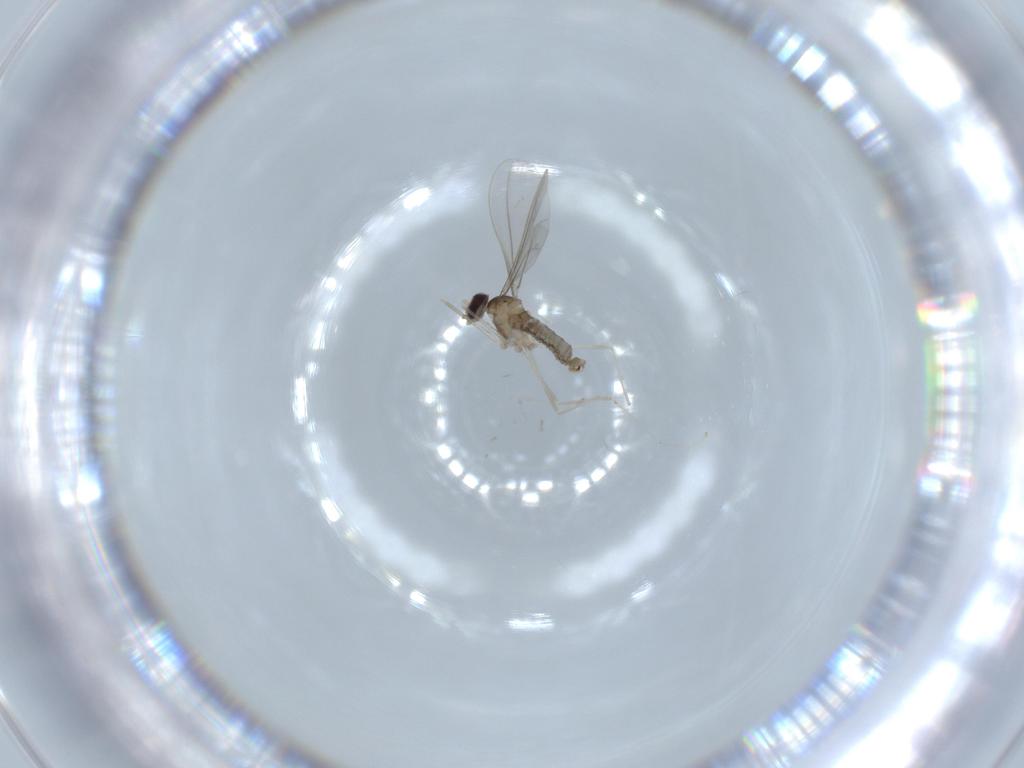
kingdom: Animalia
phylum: Arthropoda
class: Insecta
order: Diptera
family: Cecidomyiidae
